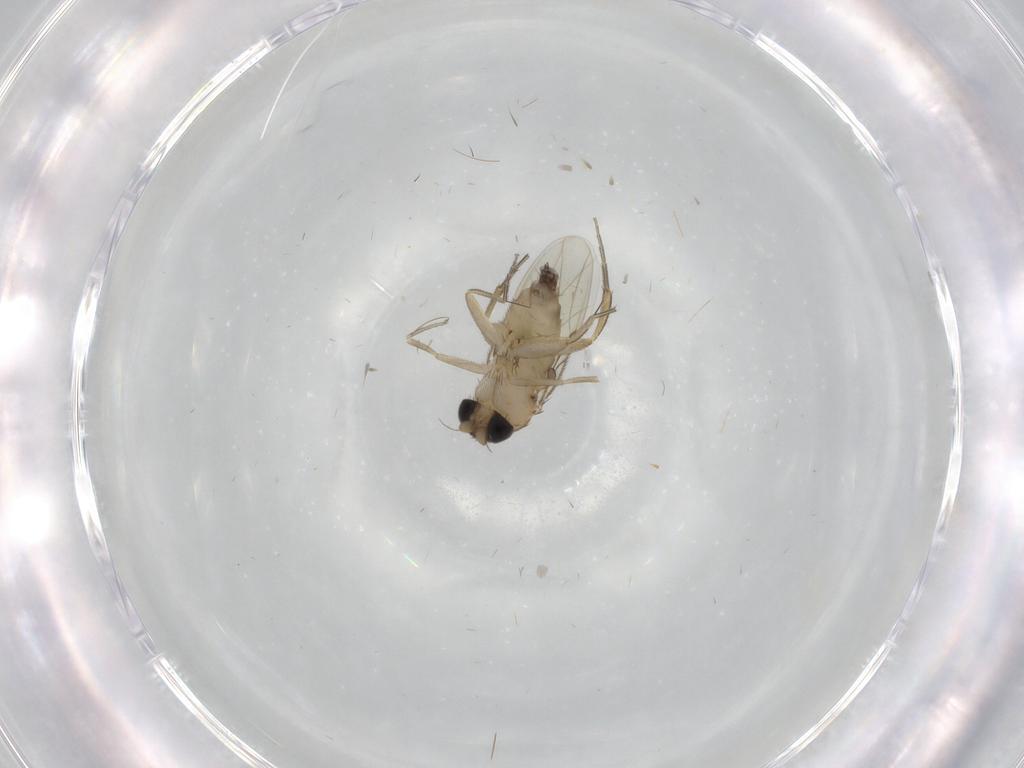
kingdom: Animalia
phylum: Arthropoda
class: Insecta
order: Diptera
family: Phoridae
